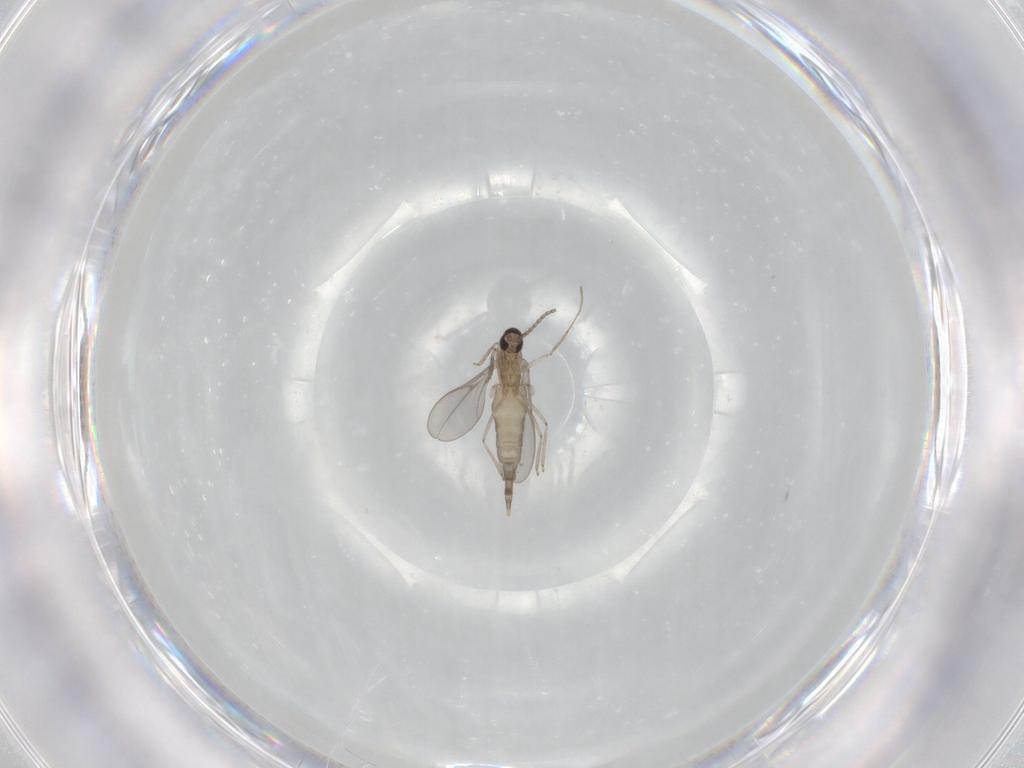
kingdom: Animalia
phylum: Arthropoda
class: Insecta
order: Diptera
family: Cecidomyiidae
